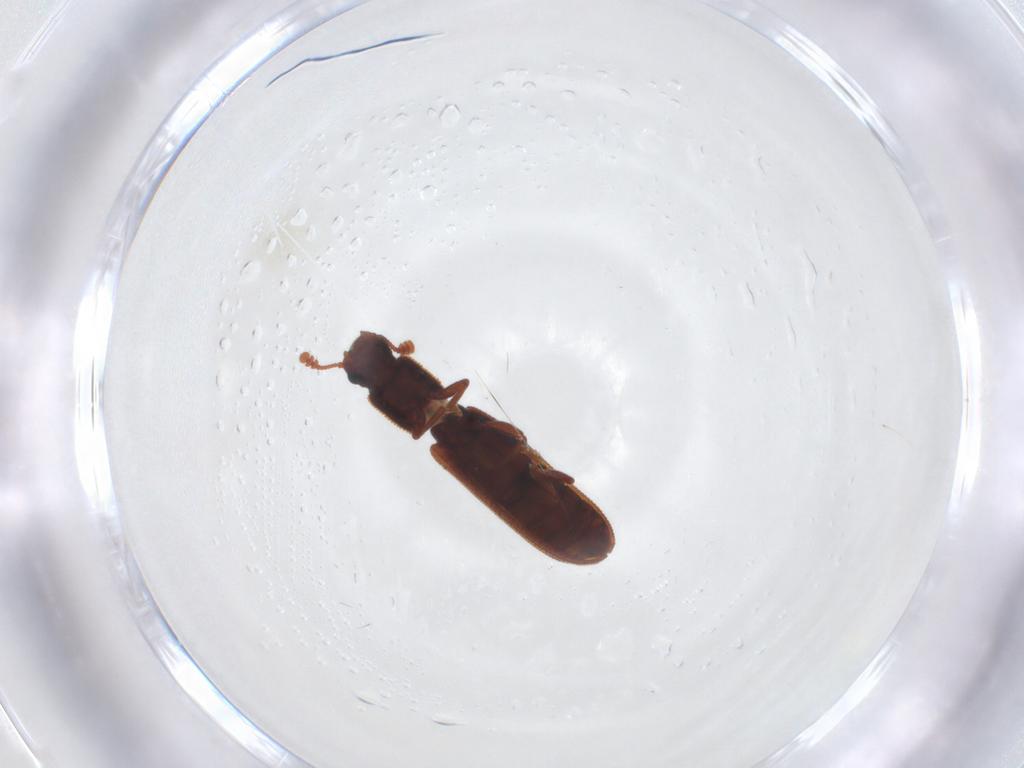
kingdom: Animalia
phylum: Arthropoda
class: Insecta
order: Coleoptera
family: Zopheridae
